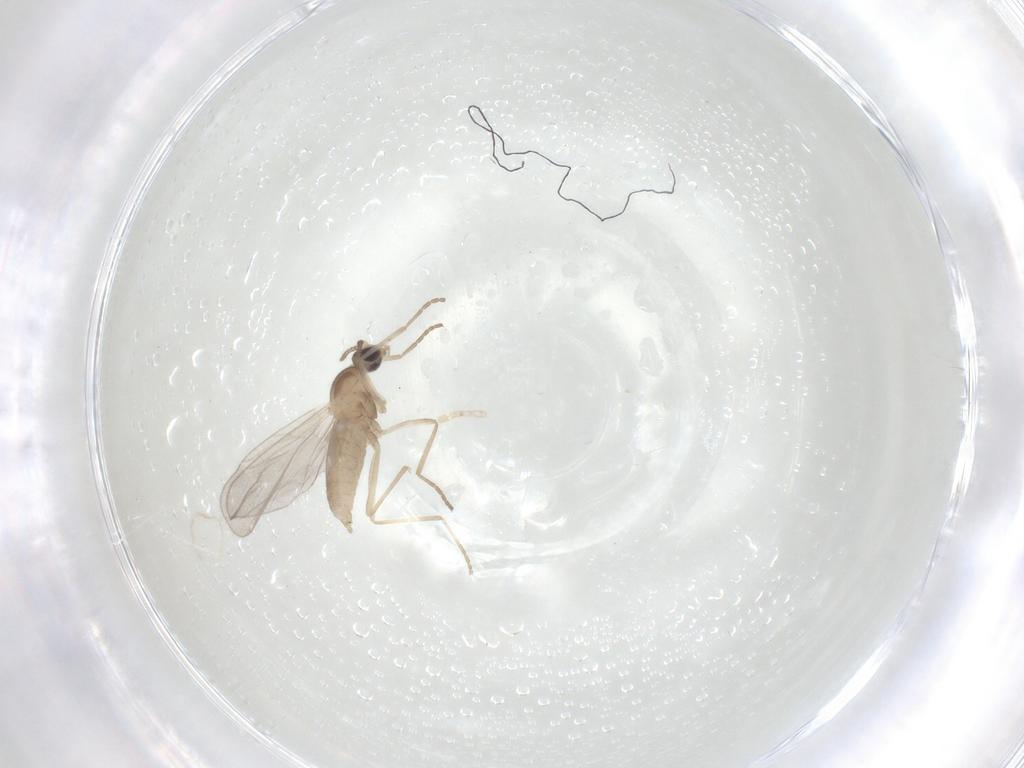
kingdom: Animalia
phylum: Arthropoda
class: Insecta
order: Diptera
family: Cecidomyiidae
